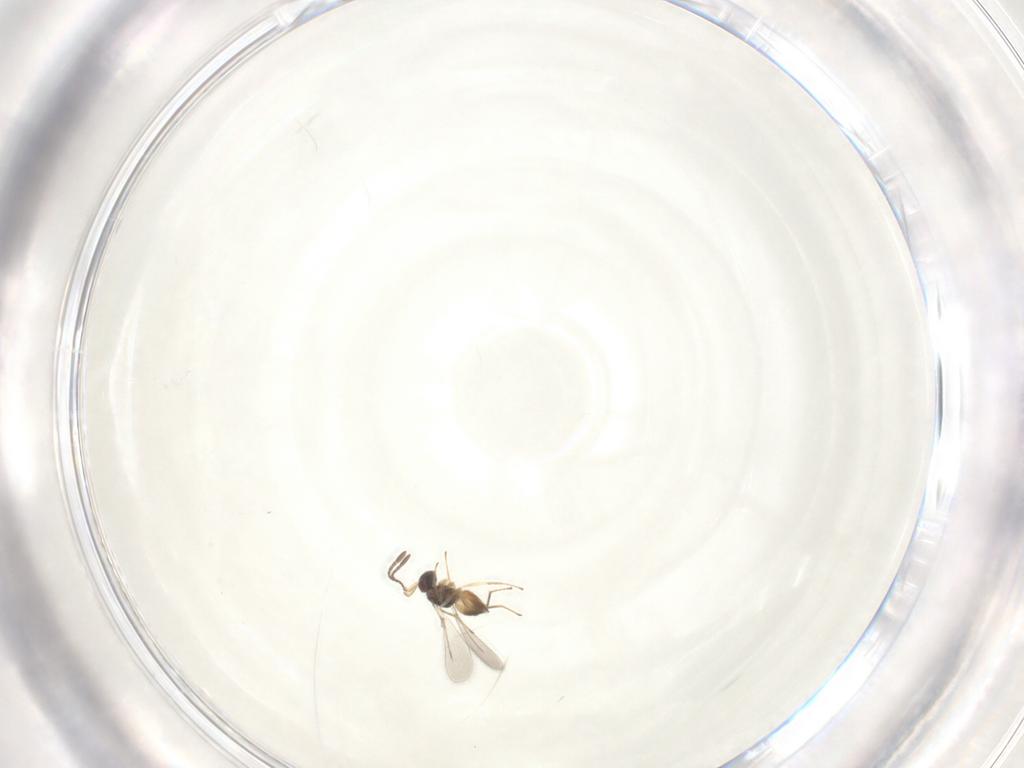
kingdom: Animalia
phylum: Arthropoda
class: Insecta
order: Hymenoptera
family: Mymaridae
